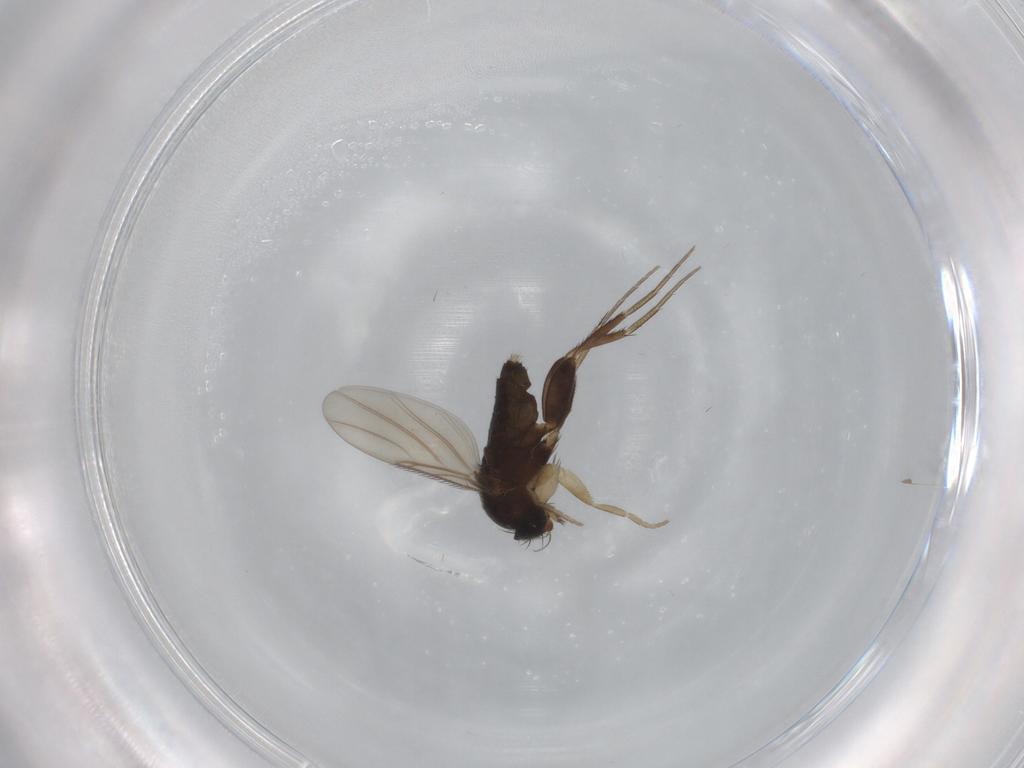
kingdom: Animalia
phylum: Arthropoda
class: Insecta
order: Diptera
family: Phoridae
